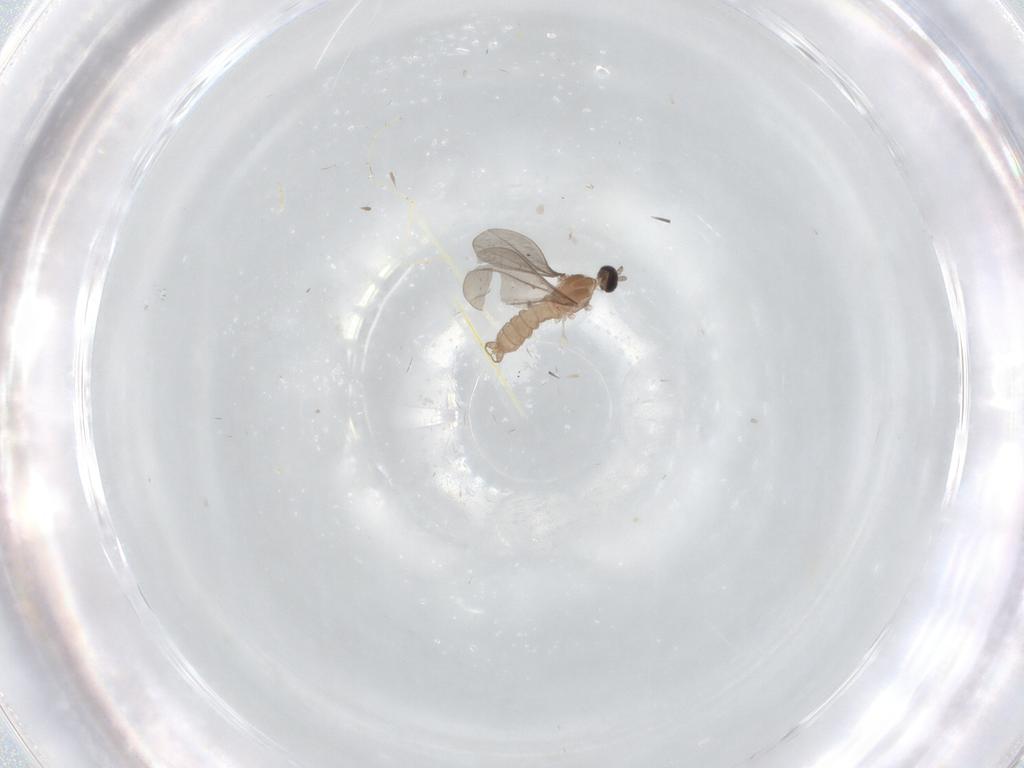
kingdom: Animalia
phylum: Arthropoda
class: Insecta
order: Diptera
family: Cecidomyiidae
